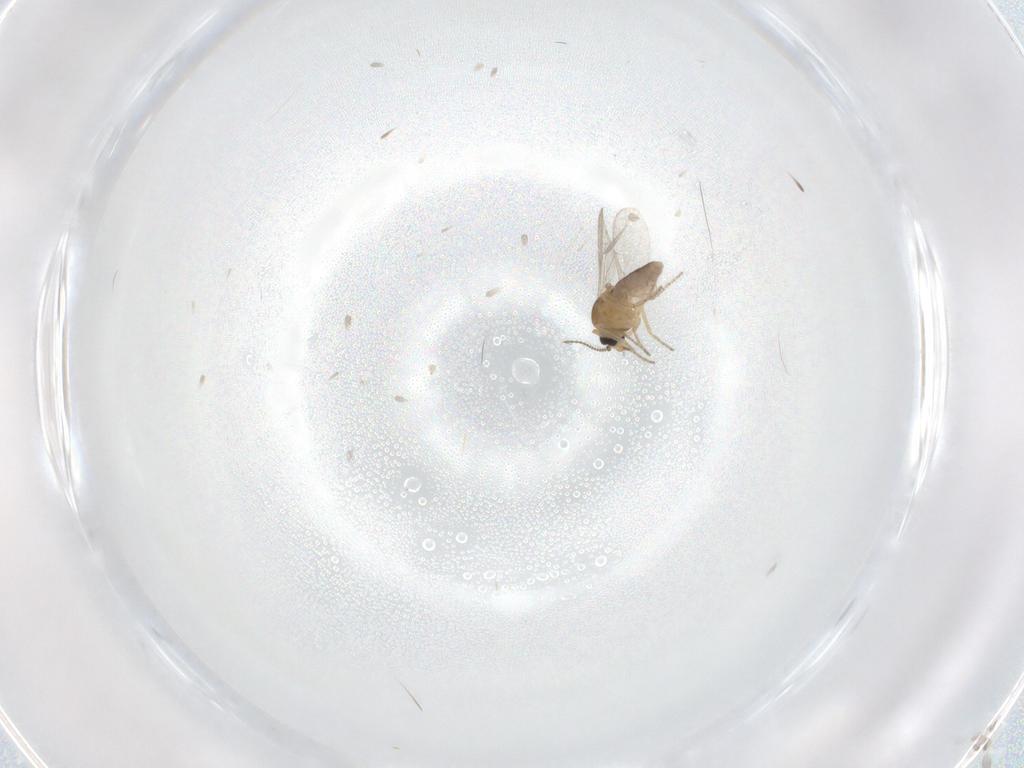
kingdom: Animalia
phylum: Arthropoda
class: Insecta
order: Diptera
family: Ceratopogonidae
